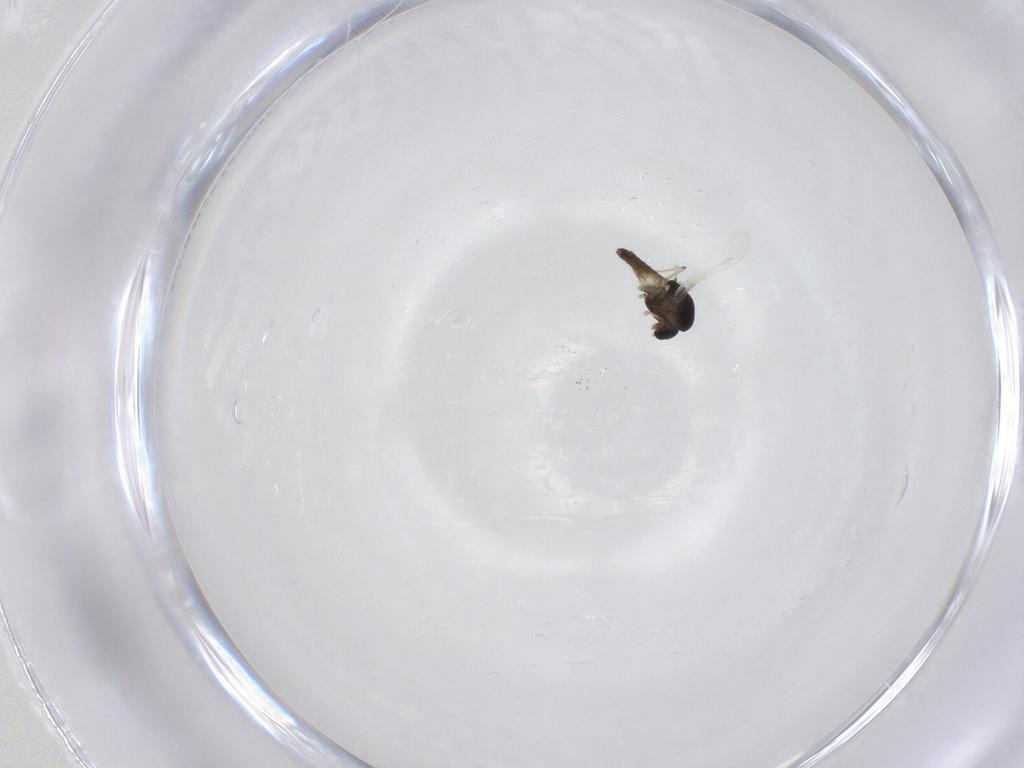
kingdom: Animalia
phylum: Arthropoda
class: Insecta
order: Diptera
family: Chironomidae
